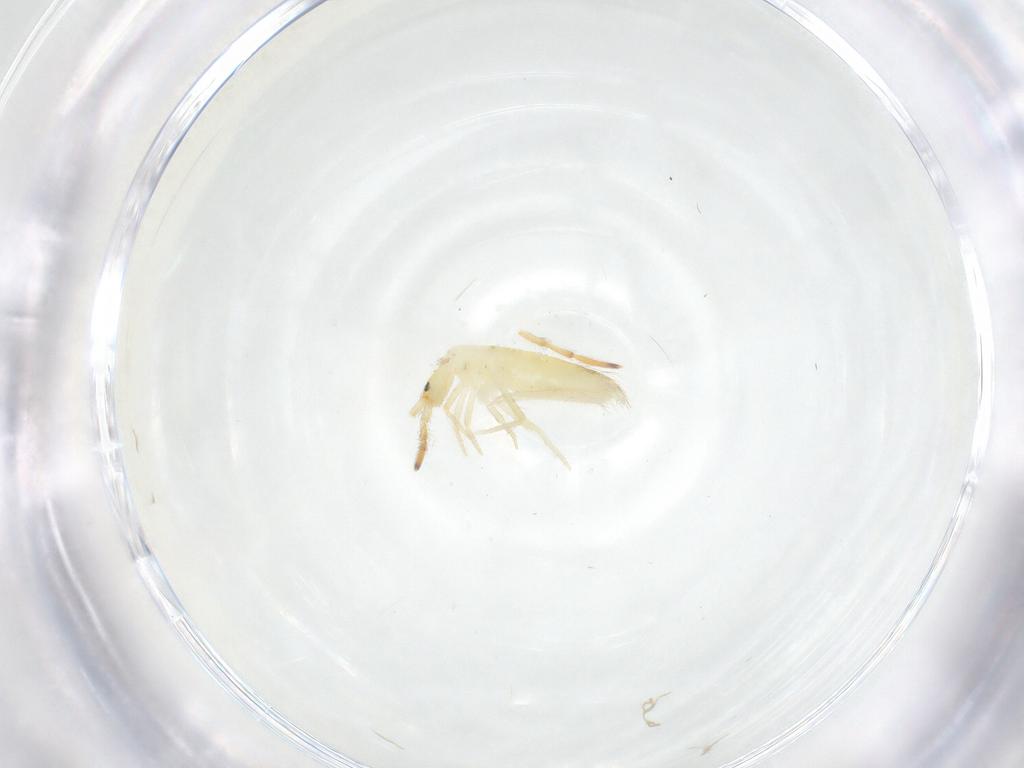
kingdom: Animalia
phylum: Arthropoda
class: Collembola
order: Entomobryomorpha
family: Entomobryidae
